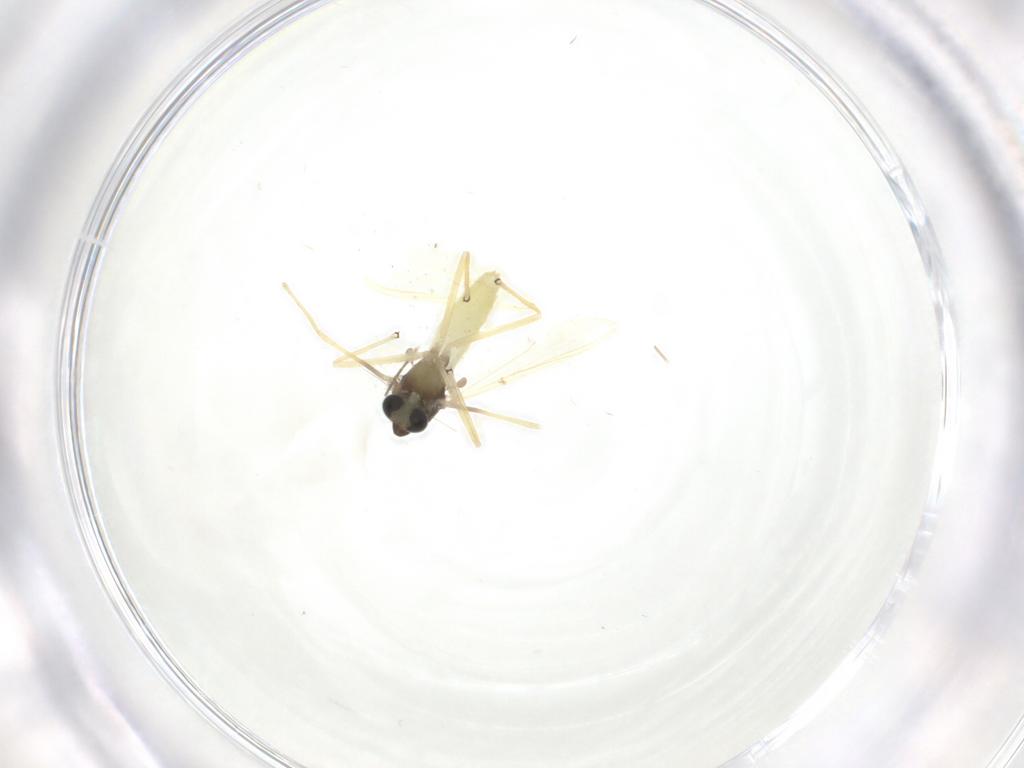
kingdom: Animalia
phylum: Arthropoda
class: Insecta
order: Diptera
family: Chironomidae
